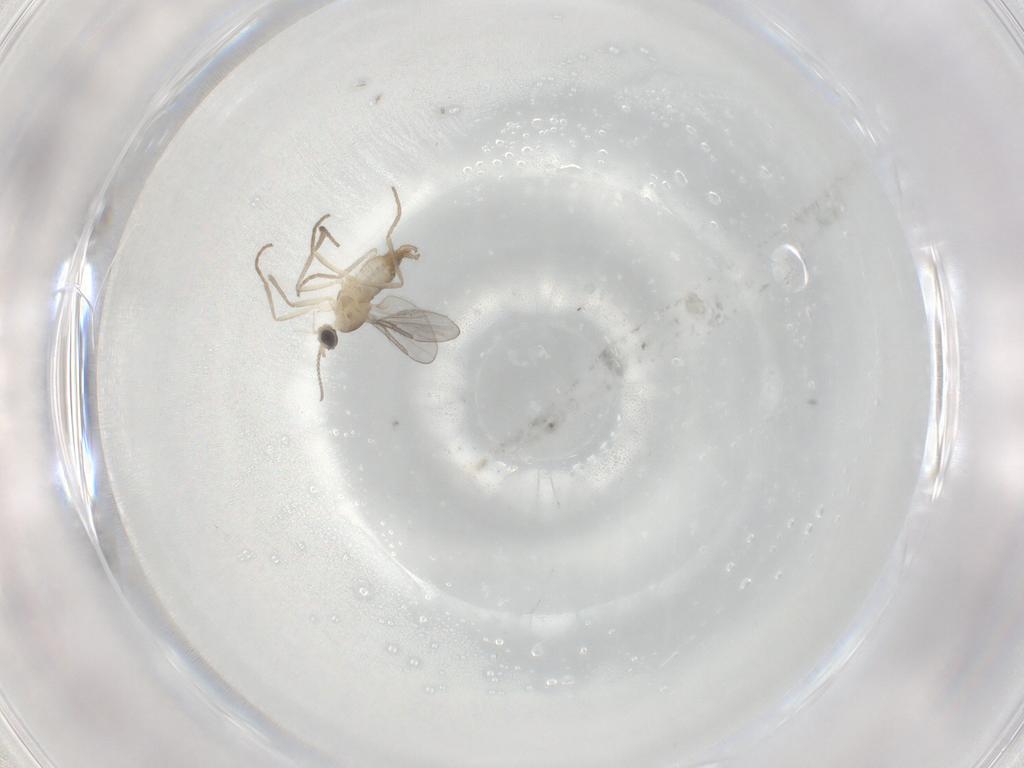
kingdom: Animalia
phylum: Arthropoda
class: Insecta
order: Diptera
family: Cecidomyiidae
